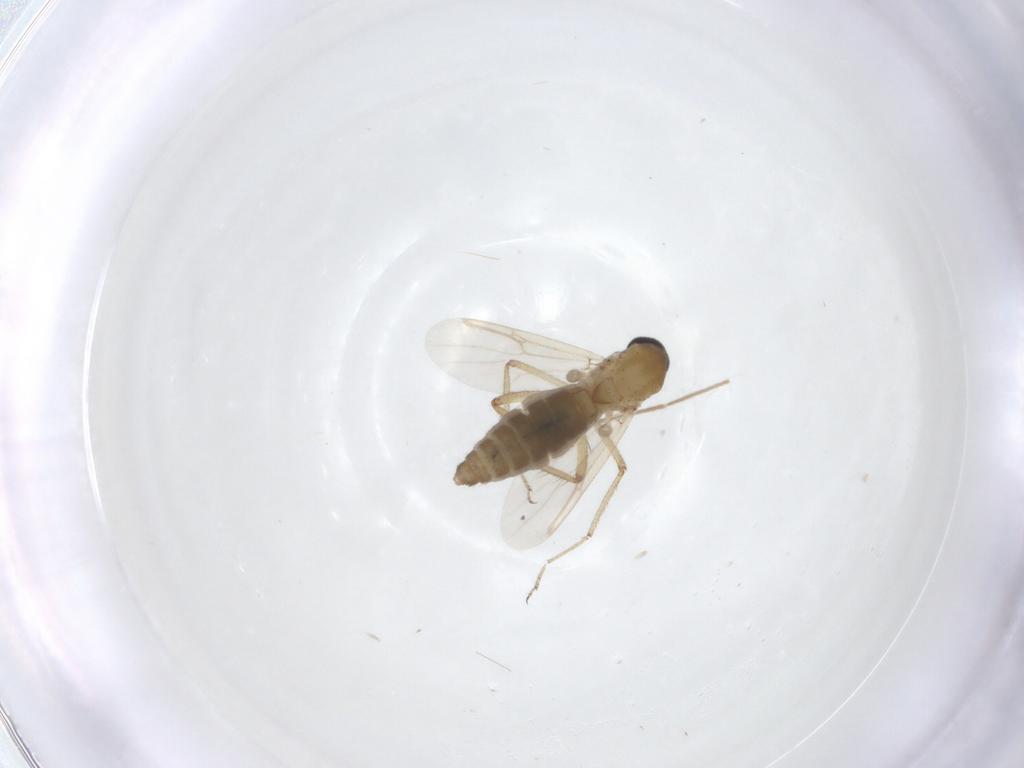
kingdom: Animalia
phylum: Arthropoda
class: Insecta
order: Diptera
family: Ceratopogonidae
